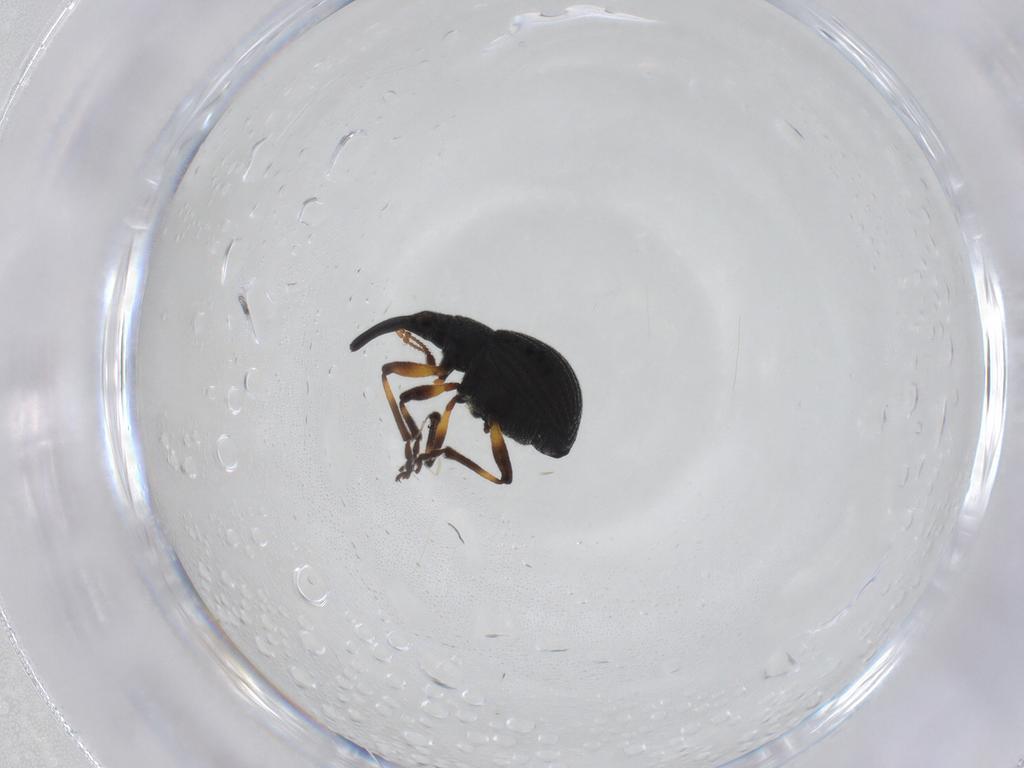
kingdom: Animalia
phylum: Arthropoda
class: Insecta
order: Coleoptera
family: Brentidae
